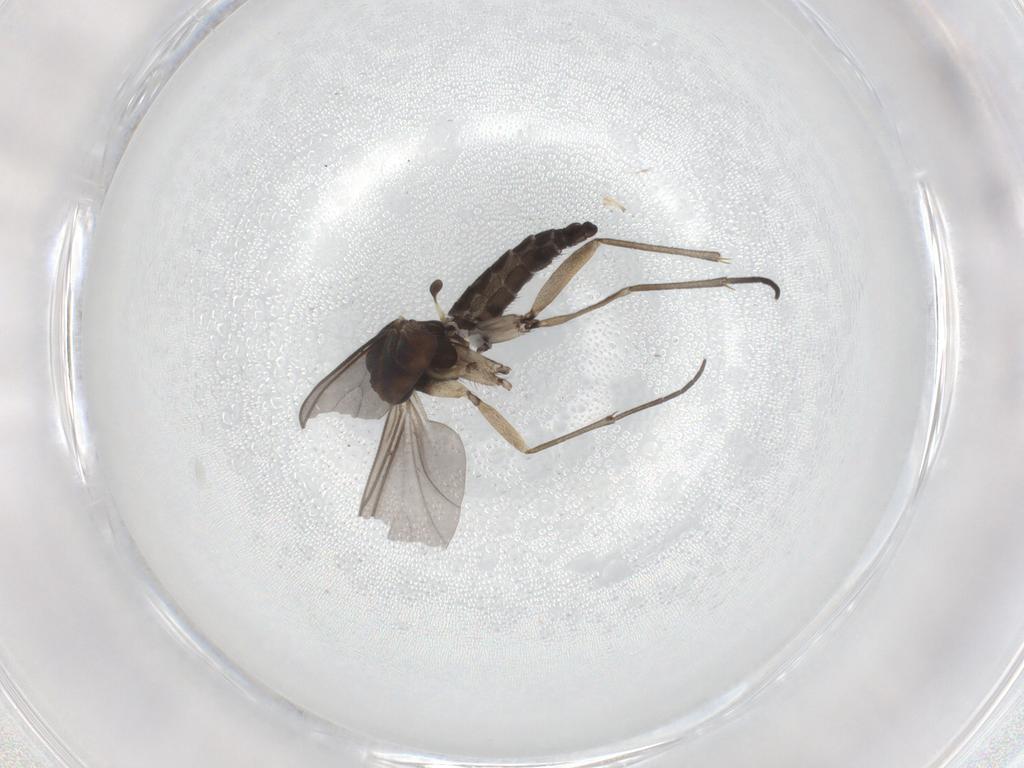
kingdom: Animalia
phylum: Arthropoda
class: Insecta
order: Diptera
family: Sciaridae
